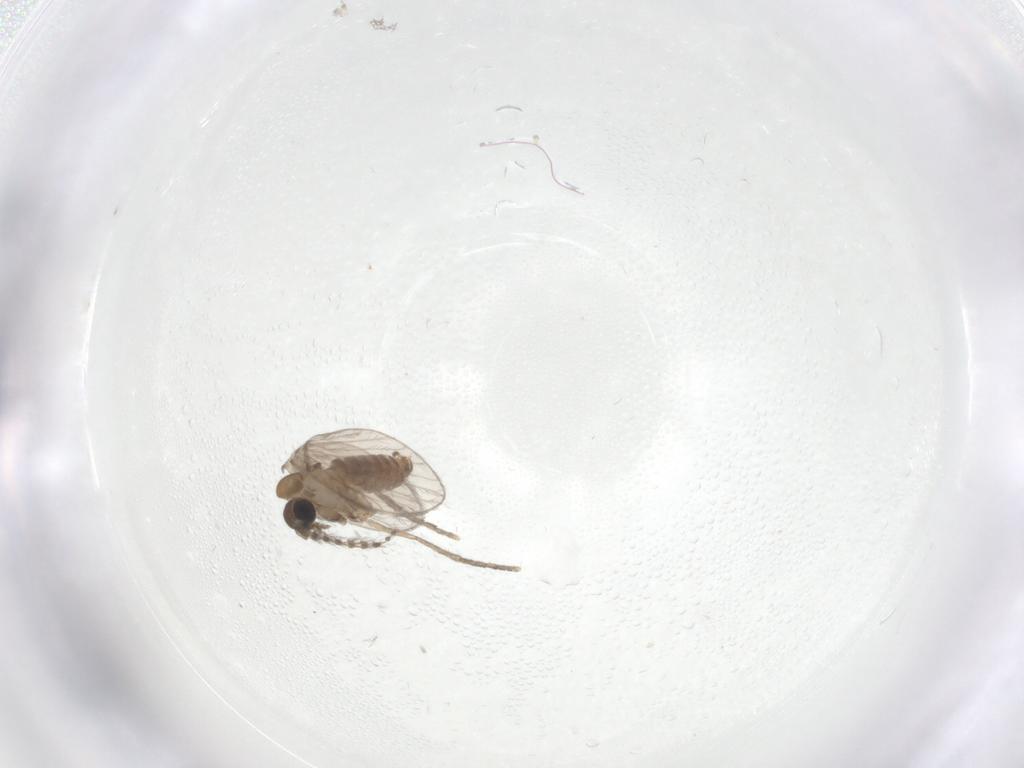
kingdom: Animalia
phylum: Arthropoda
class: Insecta
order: Diptera
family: Psychodidae
